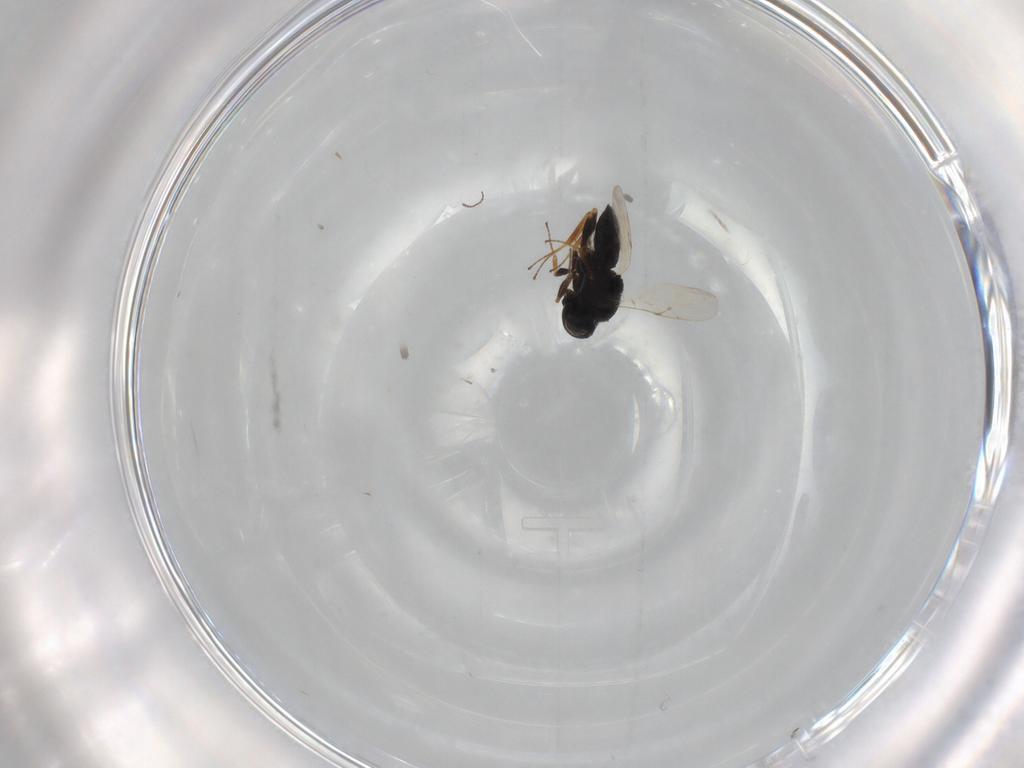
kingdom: Animalia
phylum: Arthropoda
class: Insecta
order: Hymenoptera
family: Scelionidae
